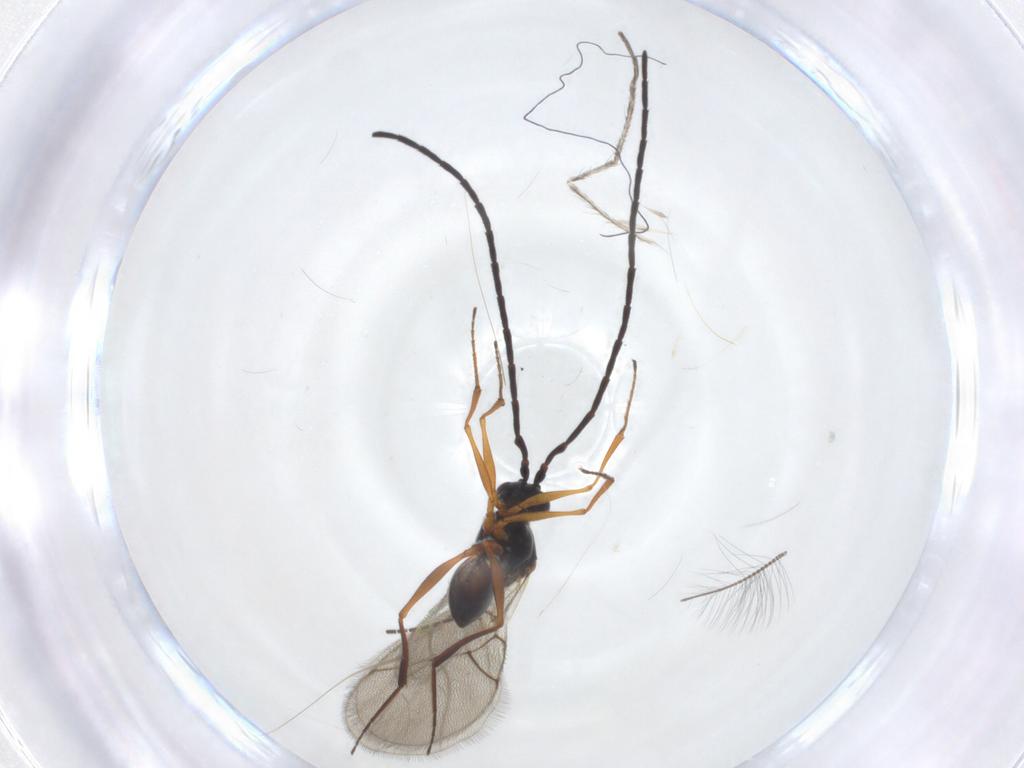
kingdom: Animalia
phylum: Arthropoda
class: Insecta
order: Hymenoptera
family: Figitidae
